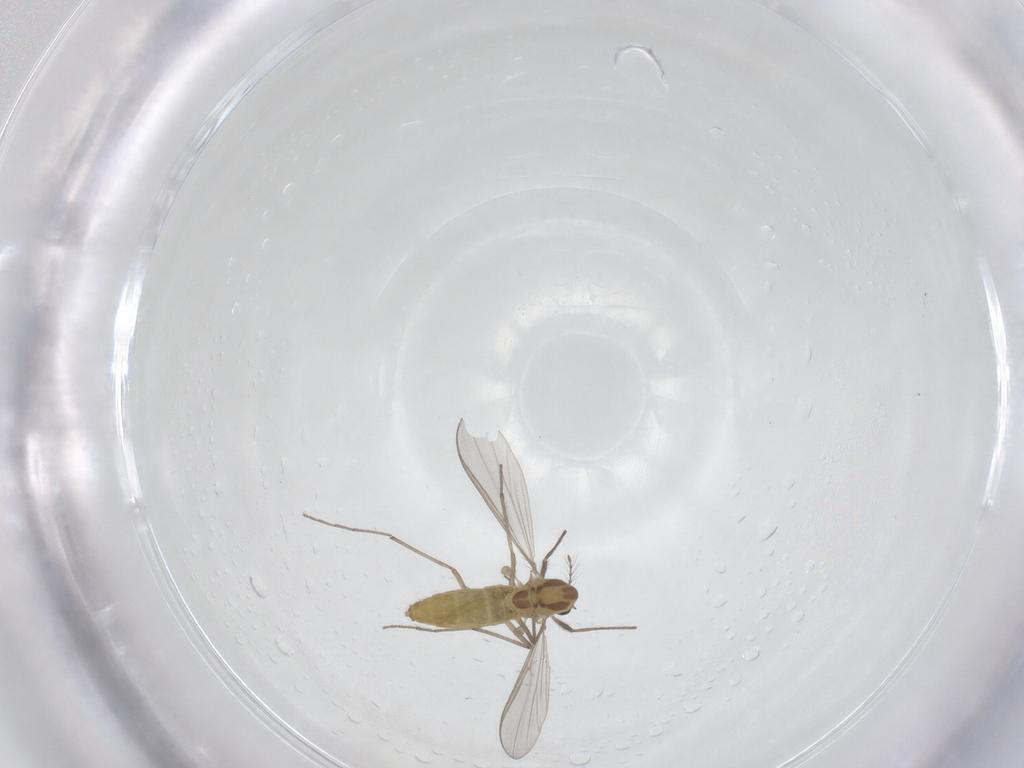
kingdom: Animalia
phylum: Arthropoda
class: Insecta
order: Diptera
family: Chironomidae
